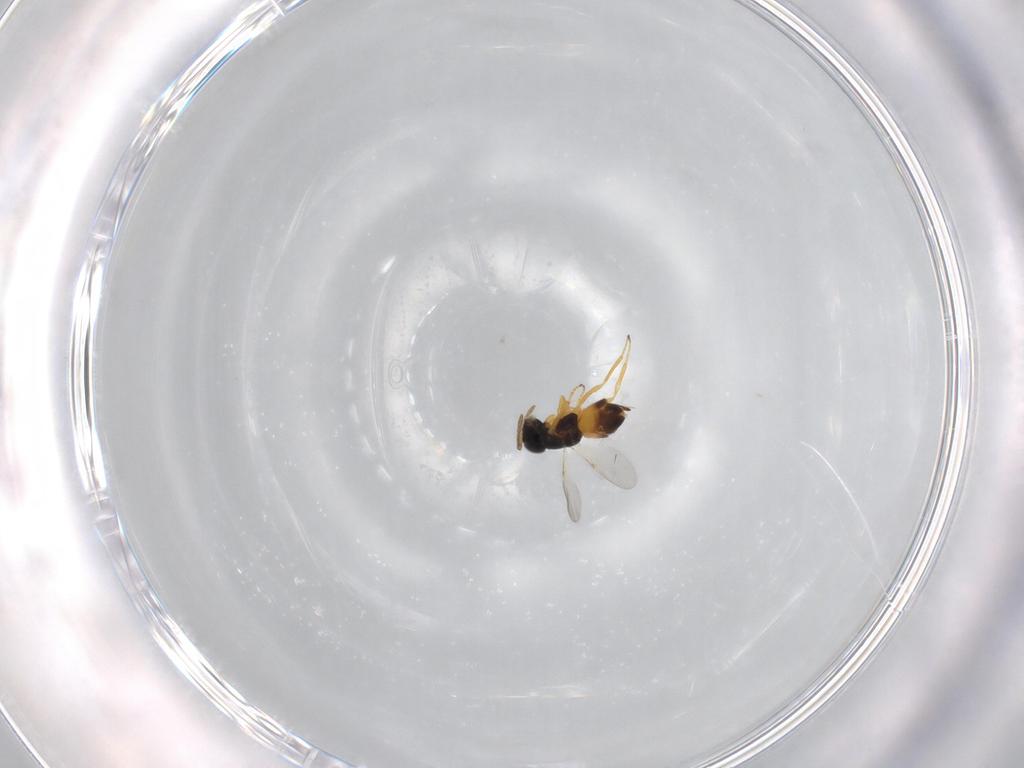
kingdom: Animalia
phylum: Arthropoda
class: Insecta
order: Hymenoptera
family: Encyrtidae
